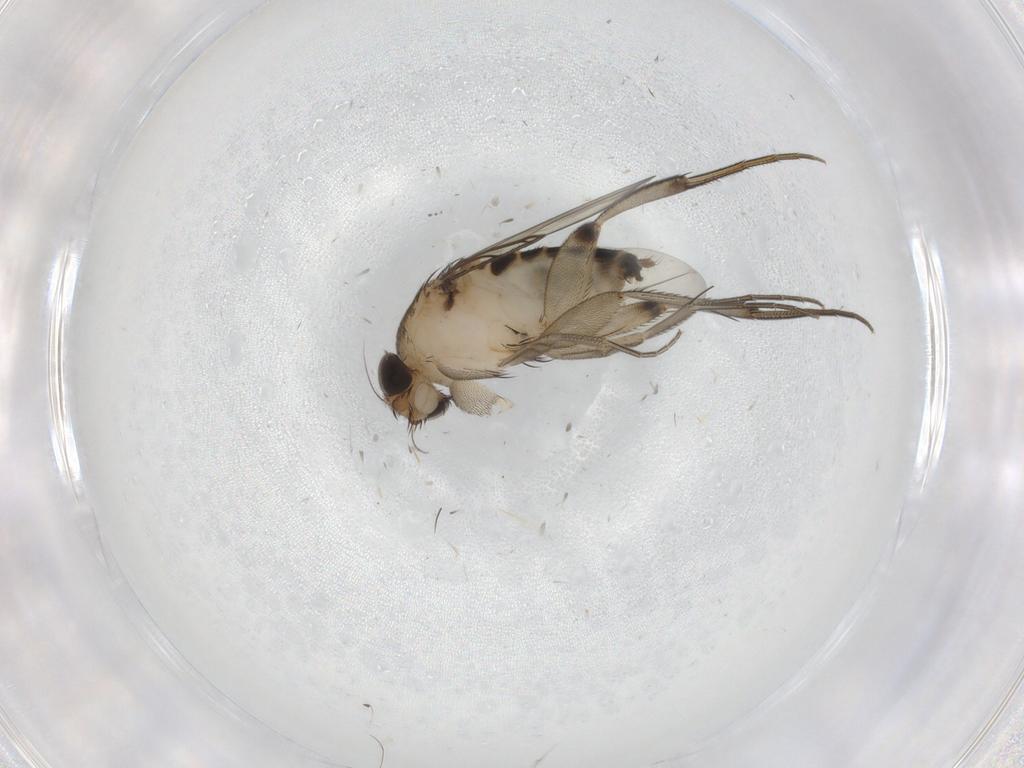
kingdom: Animalia
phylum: Arthropoda
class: Insecta
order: Diptera
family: Phoridae
